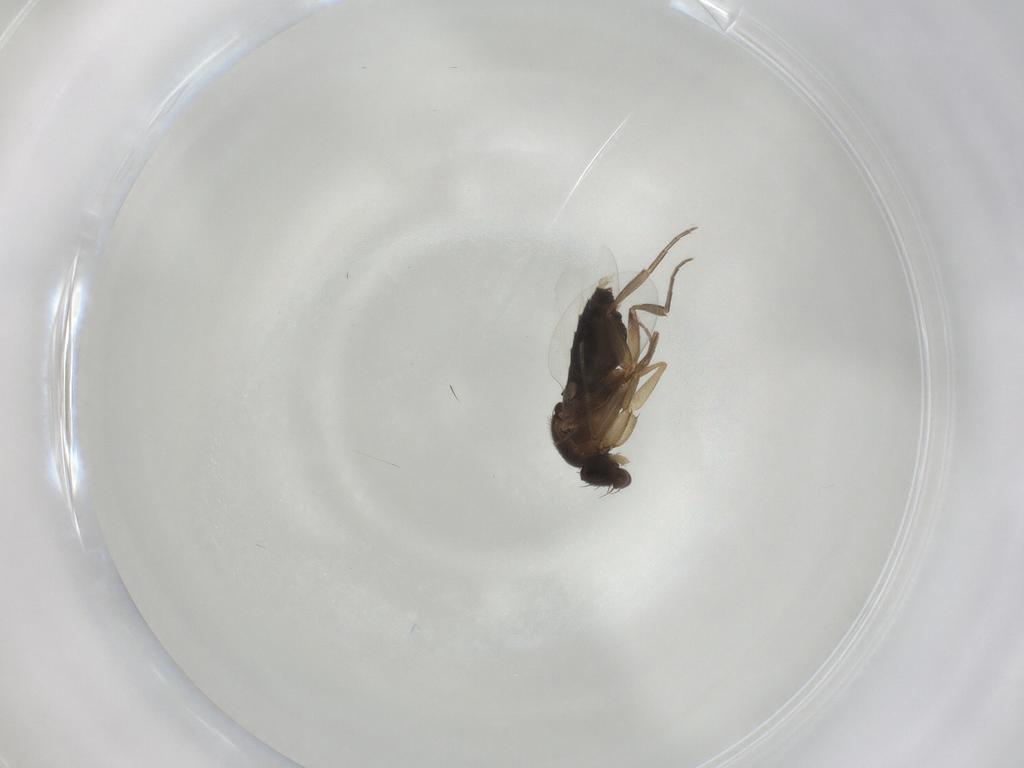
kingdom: Animalia
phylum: Arthropoda
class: Insecta
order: Diptera
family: Phoridae
